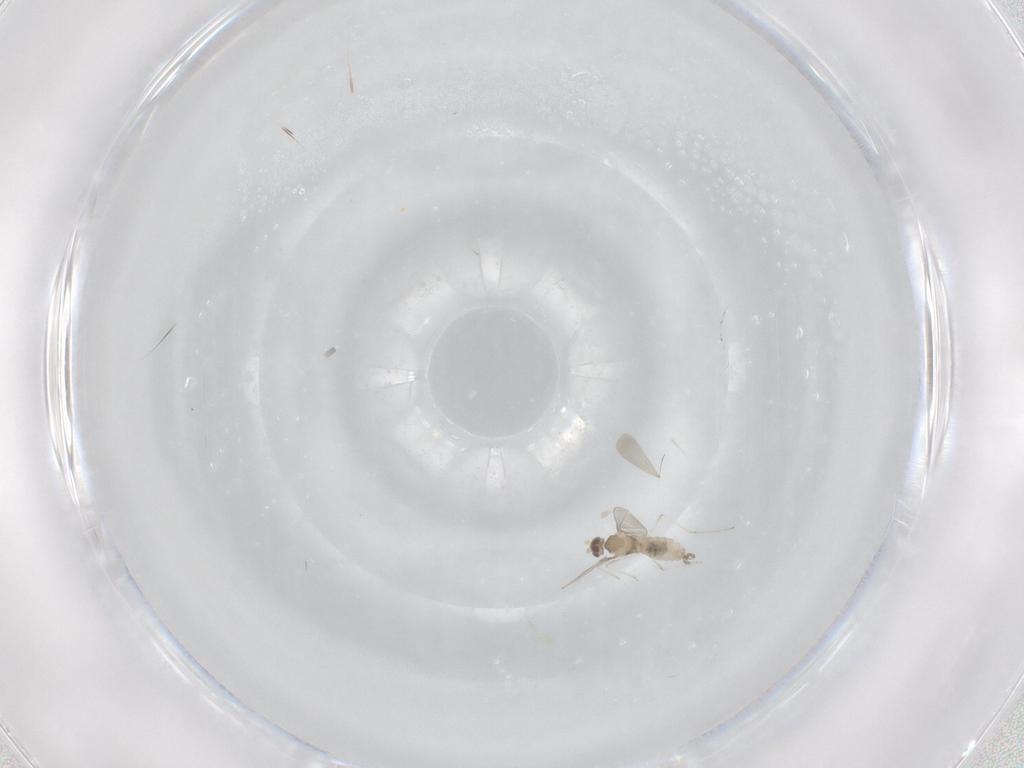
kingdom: Animalia
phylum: Arthropoda
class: Insecta
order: Diptera
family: Cecidomyiidae
